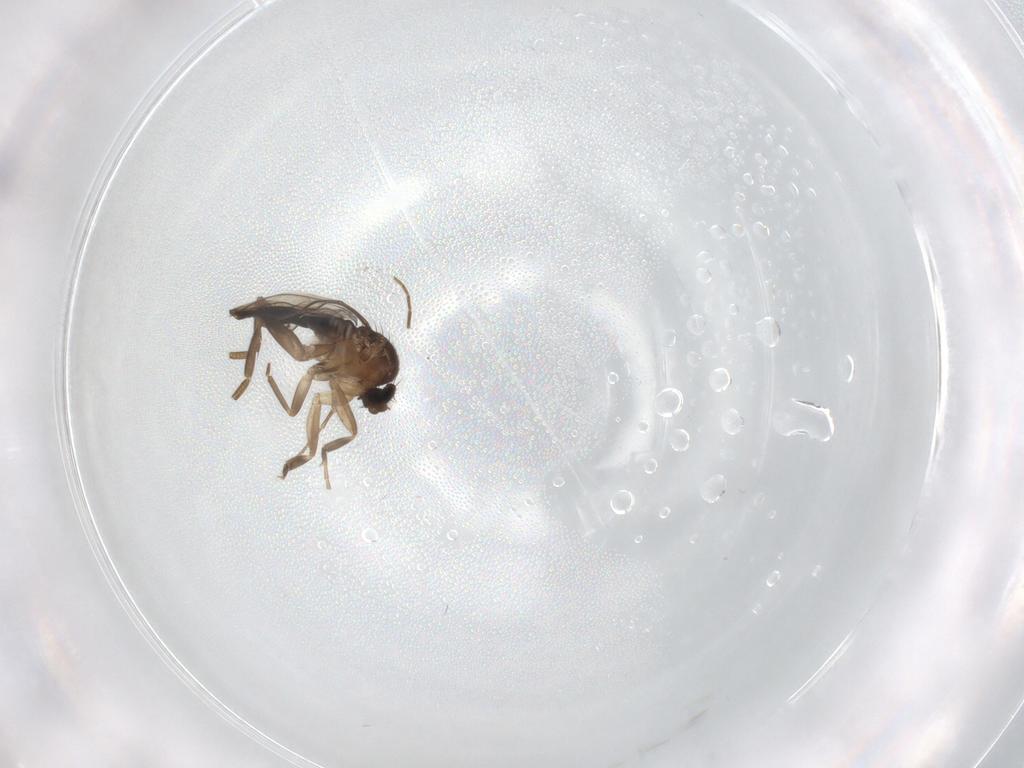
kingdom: Animalia
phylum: Arthropoda
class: Insecta
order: Diptera
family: Phoridae
